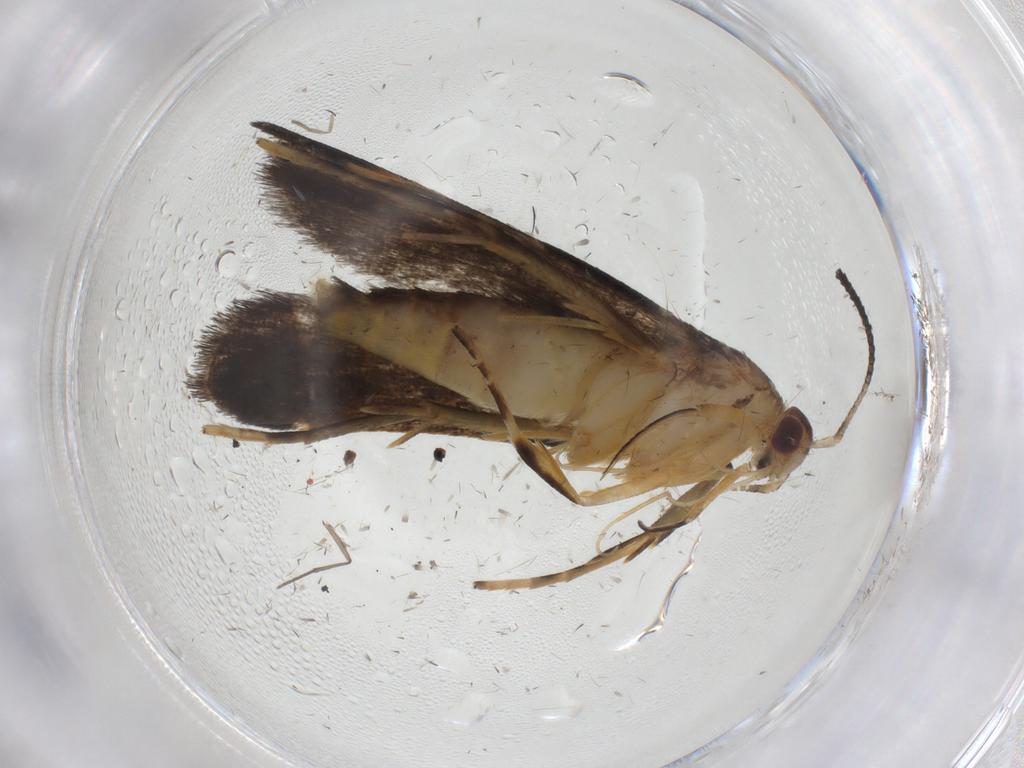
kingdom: Animalia
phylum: Arthropoda
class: Insecta
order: Lepidoptera
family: Gelechiidae
